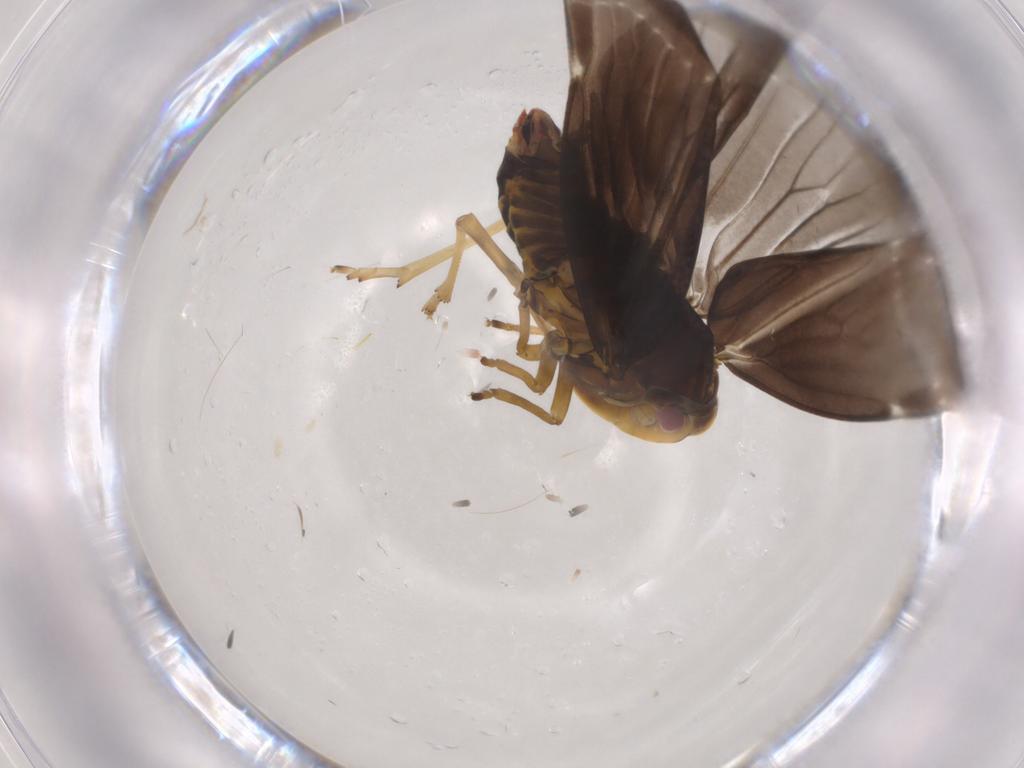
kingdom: Animalia
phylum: Arthropoda
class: Insecta
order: Hemiptera
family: Derbidae
